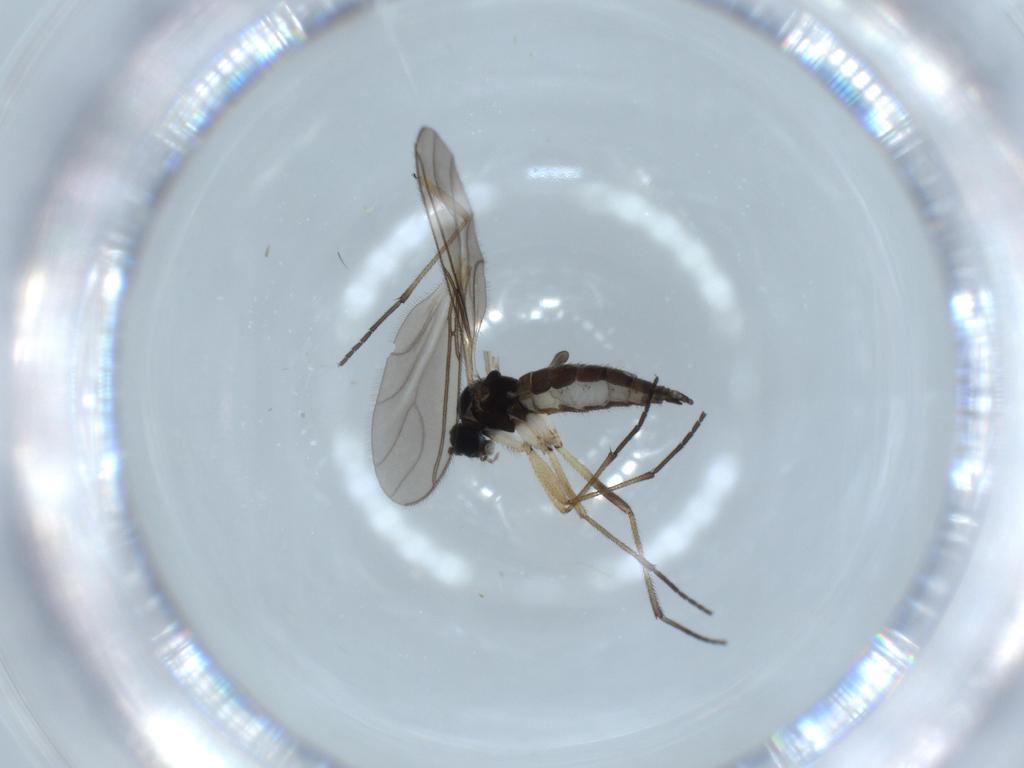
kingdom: Animalia
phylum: Arthropoda
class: Insecta
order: Diptera
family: Sciaridae
